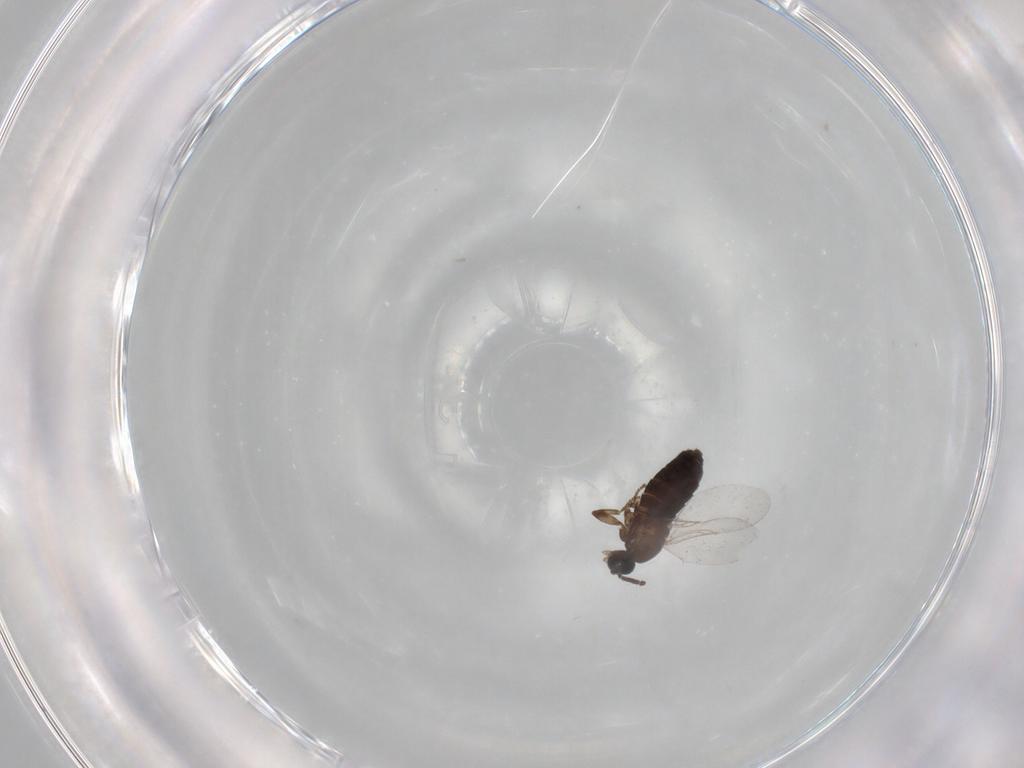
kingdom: Animalia
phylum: Arthropoda
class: Insecta
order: Diptera
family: Calliphoridae
